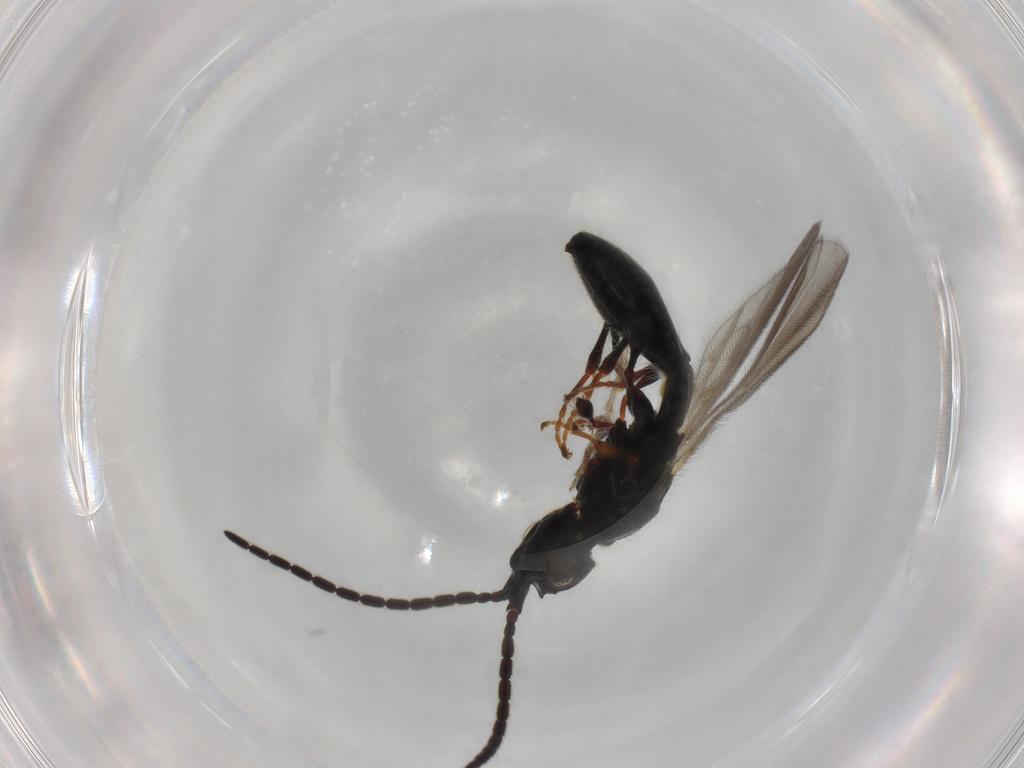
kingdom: Animalia
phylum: Arthropoda
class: Insecta
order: Hymenoptera
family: Diapriidae
